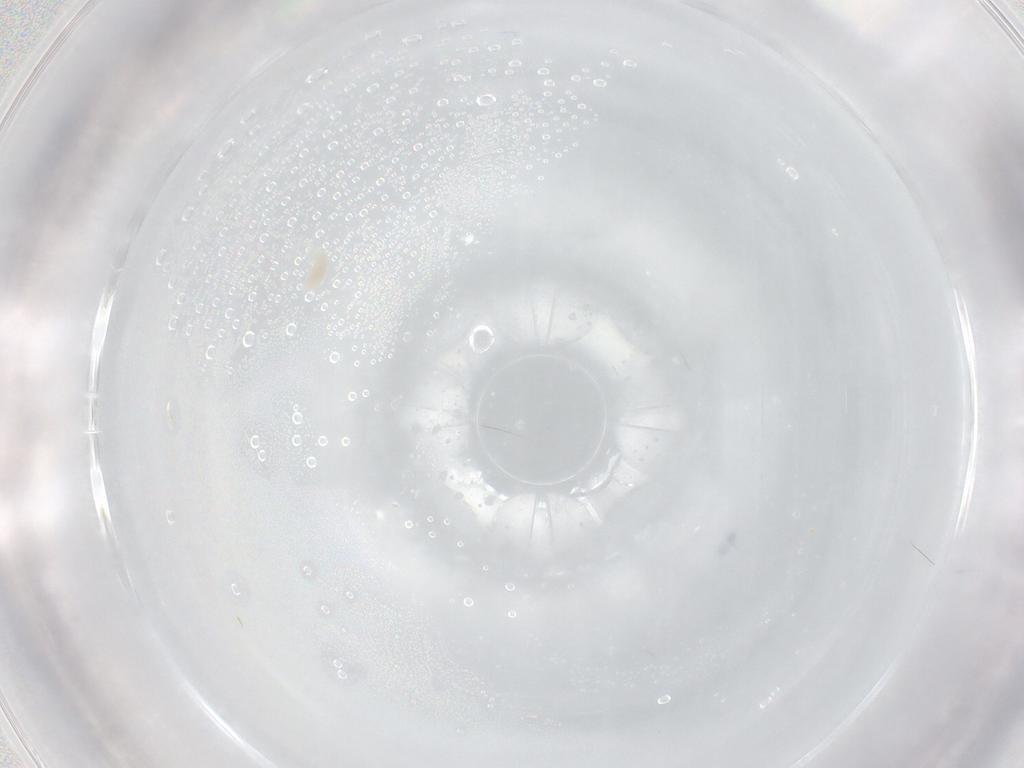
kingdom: Animalia
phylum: Arthropoda
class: Arachnida
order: Trombidiformes
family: Eupodidae
